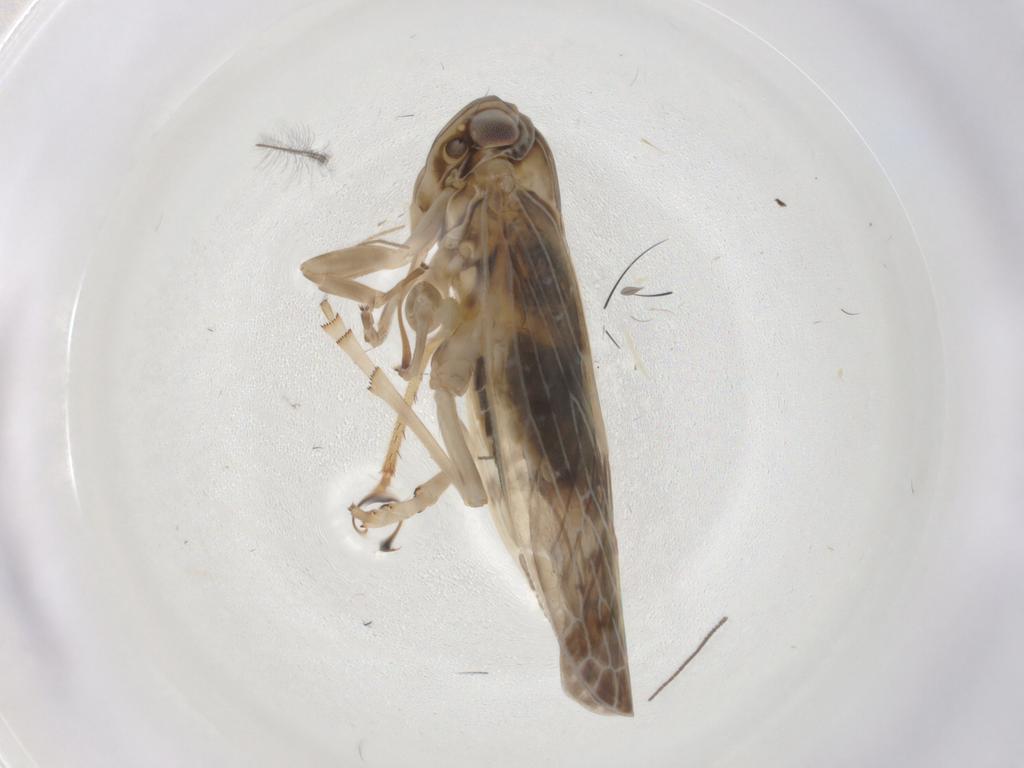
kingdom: Animalia
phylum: Arthropoda
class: Insecta
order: Hemiptera
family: Achilidae
